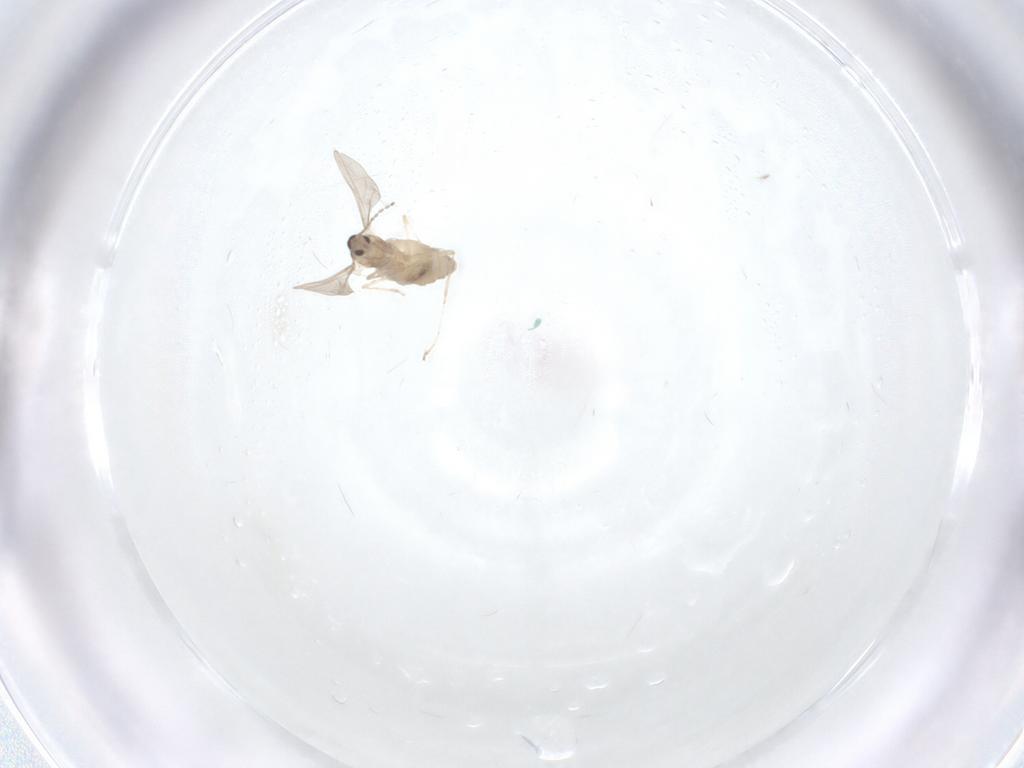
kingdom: Animalia
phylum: Arthropoda
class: Insecta
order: Diptera
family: Cecidomyiidae
